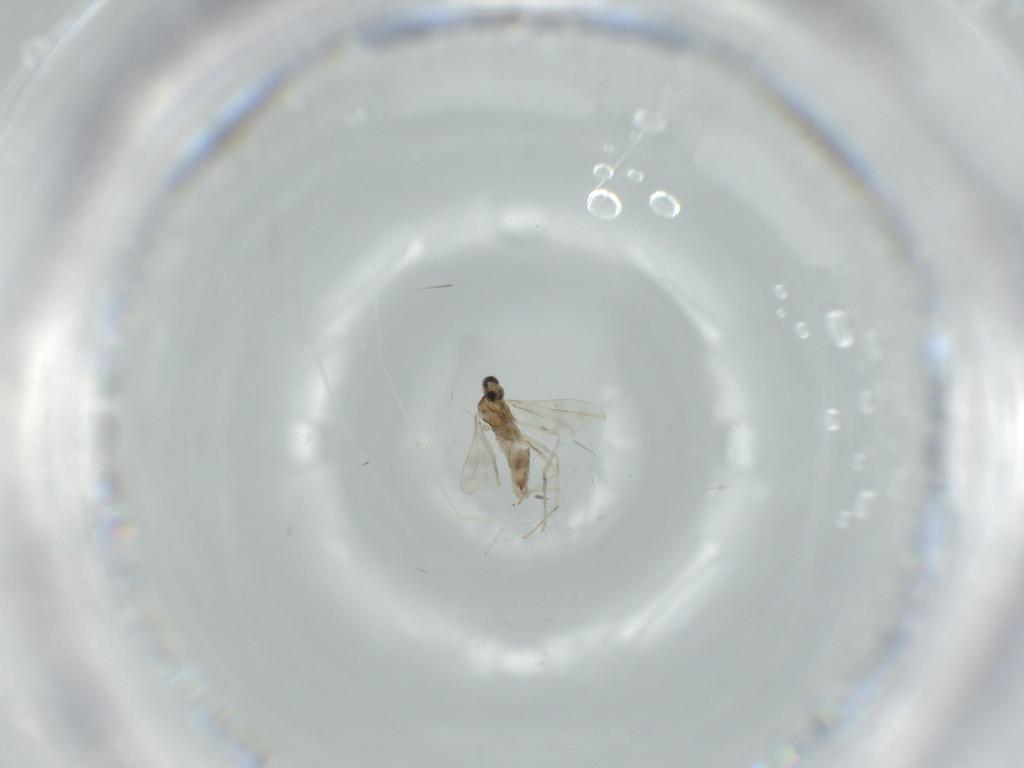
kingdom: Animalia
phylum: Arthropoda
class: Insecta
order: Diptera
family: Cecidomyiidae
